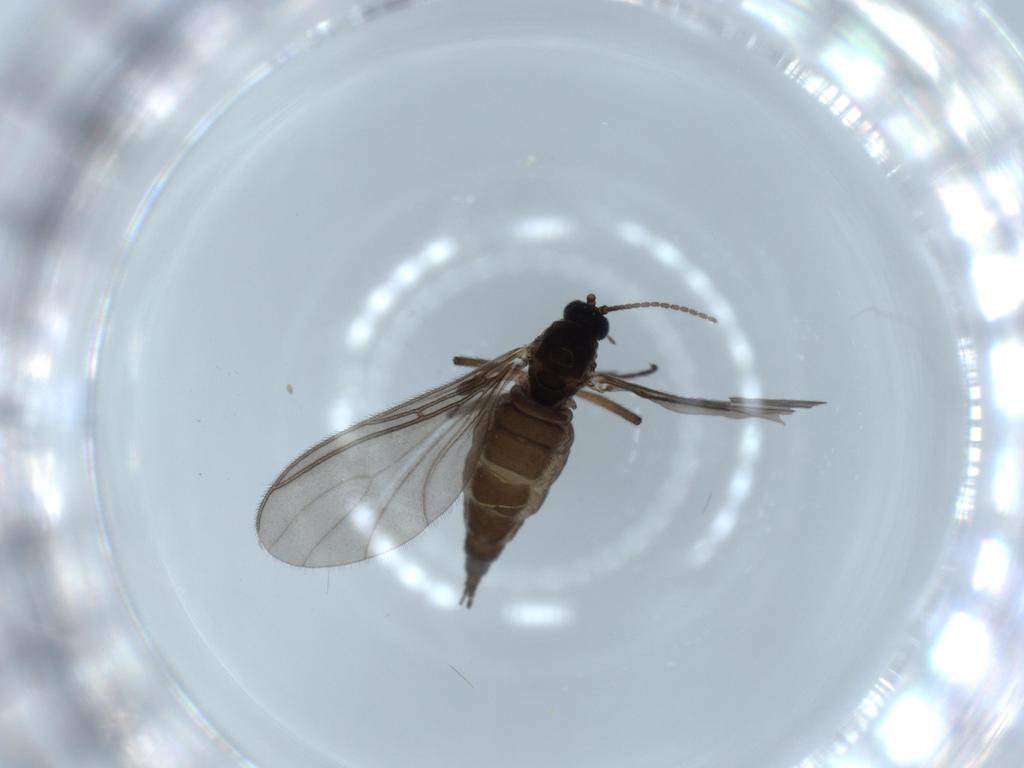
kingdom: Animalia
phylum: Arthropoda
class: Insecta
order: Diptera
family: Sciaridae
